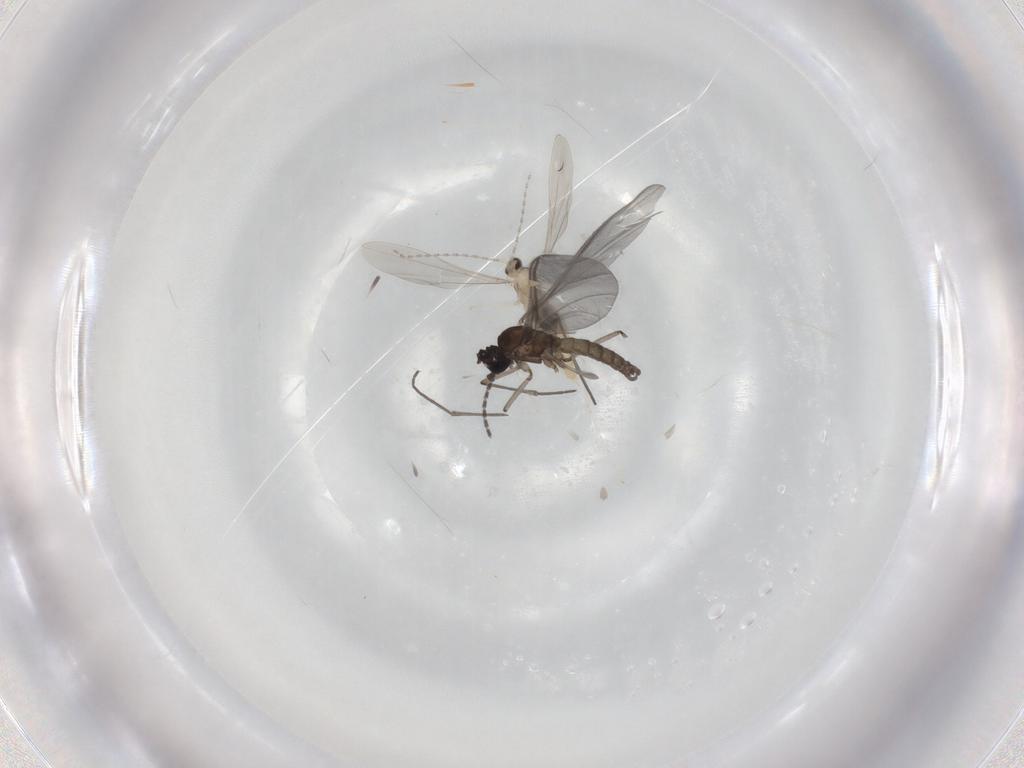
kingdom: Animalia
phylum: Arthropoda
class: Insecta
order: Diptera
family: Sciaridae
